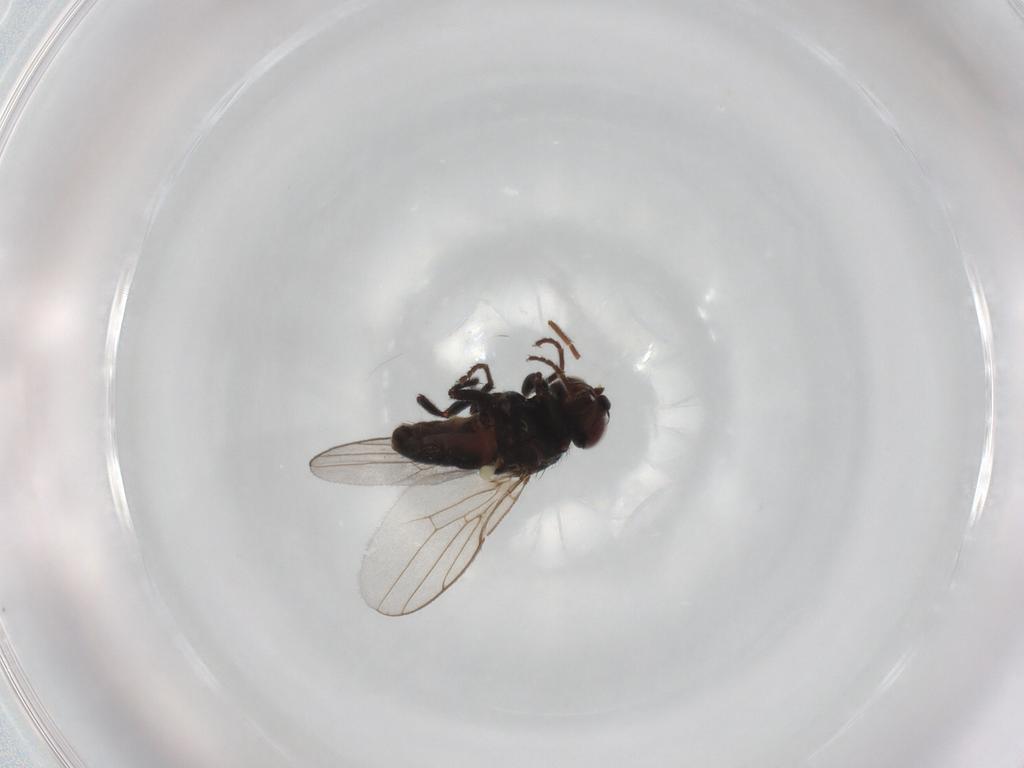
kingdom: Animalia
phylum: Arthropoda
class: Insecta
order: Diptera
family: Chloropidae
